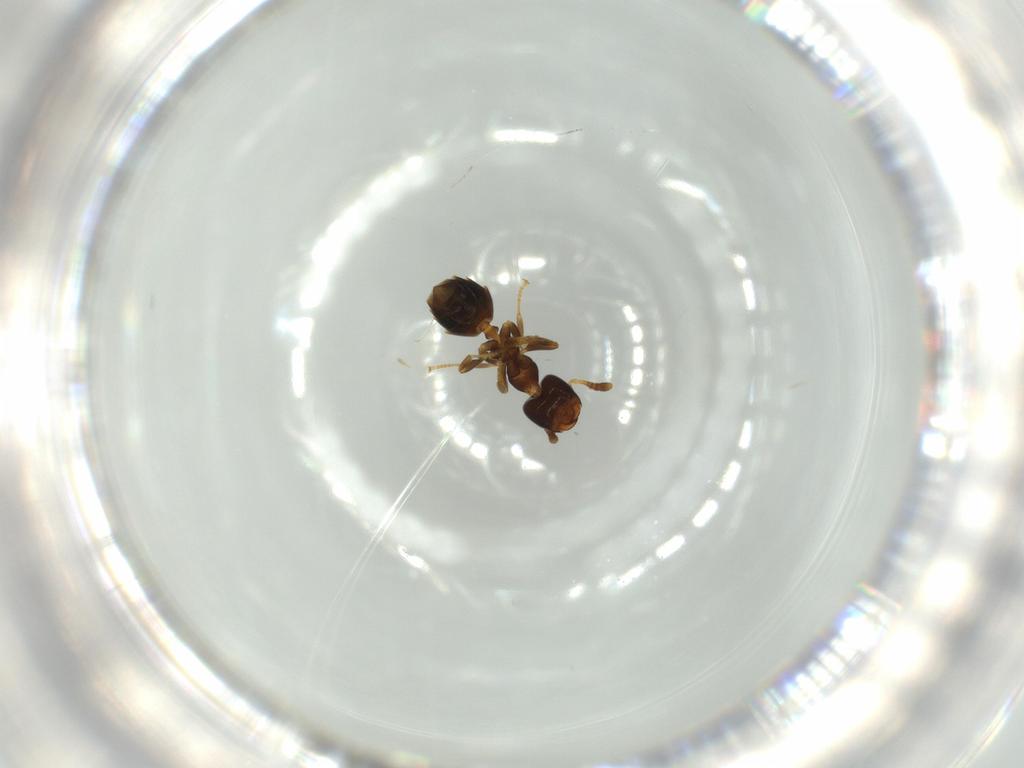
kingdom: Animalia
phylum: Arthropoda
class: Insecta
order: Hymenoptera
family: Formicidae
